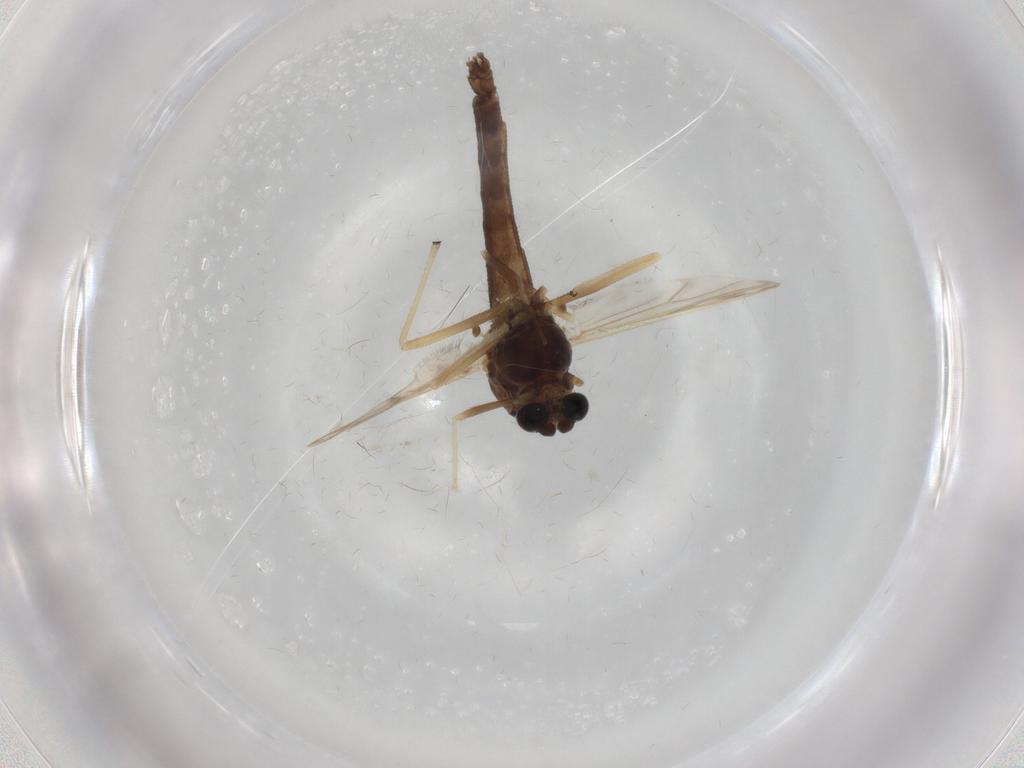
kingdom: Animalia
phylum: Arthropoda
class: Insecta
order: Diptera
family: Chironomidae
